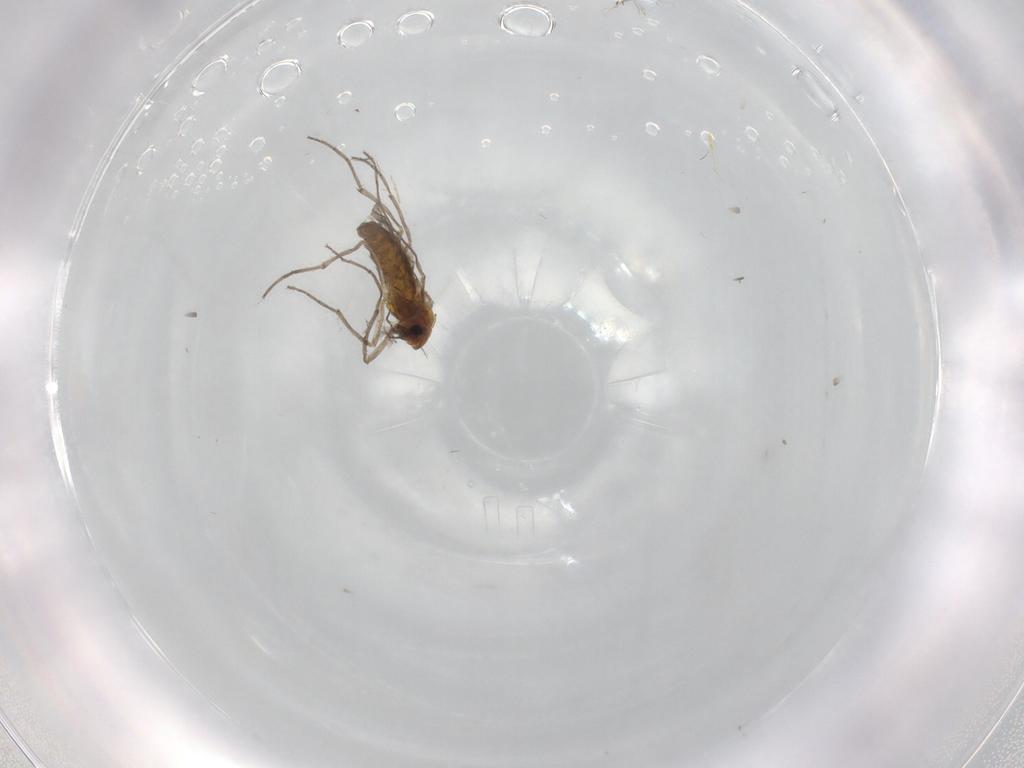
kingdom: Animalia
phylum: Arthropoda
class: Insecta
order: Diptera
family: Chironomidae
